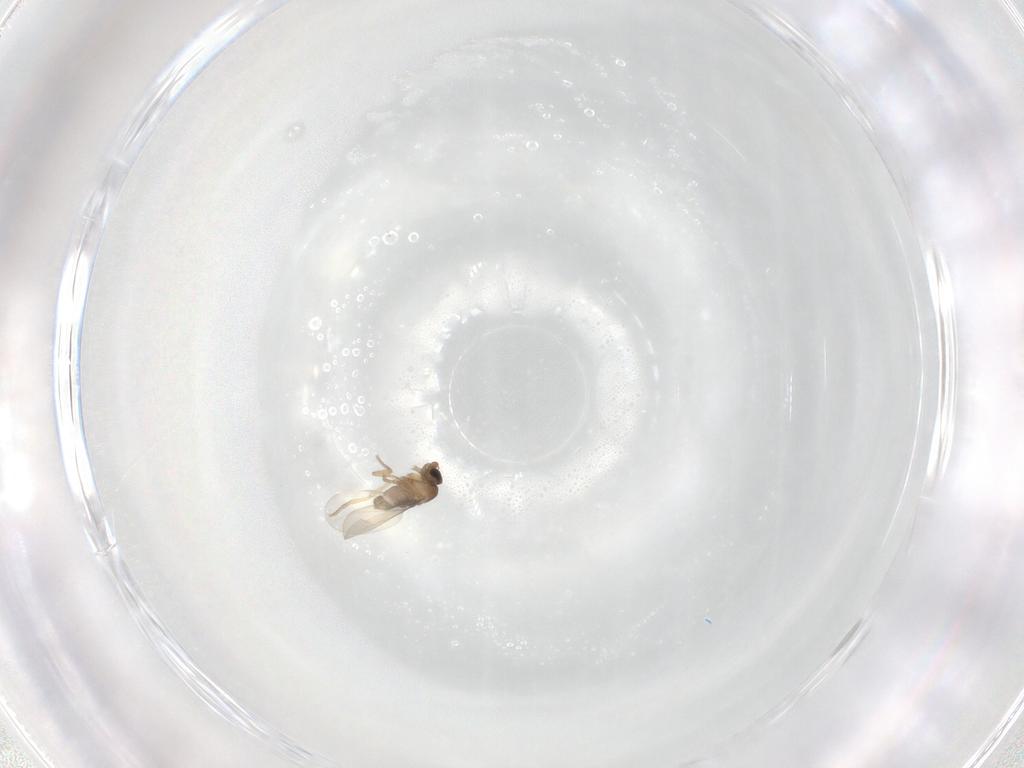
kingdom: Animalia
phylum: Arthropoda
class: Insecta
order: Diptera
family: Phoridae
